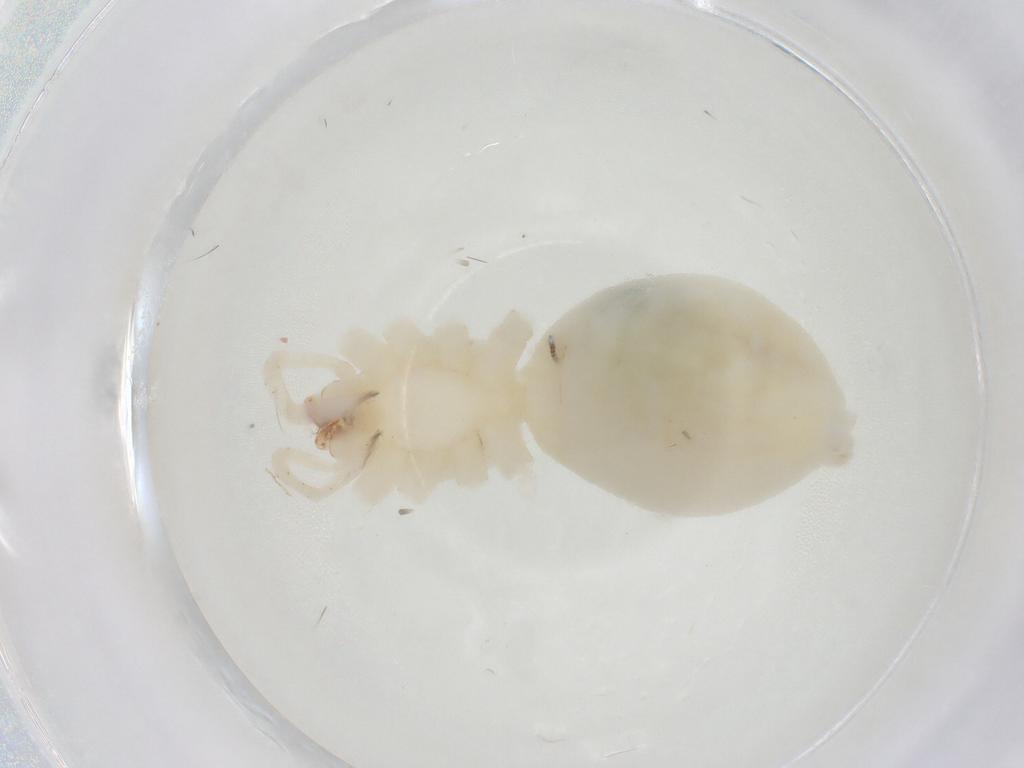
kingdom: Animalia
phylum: Arthropoda
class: Arachnida
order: Araneae
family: Anyphaenidae
